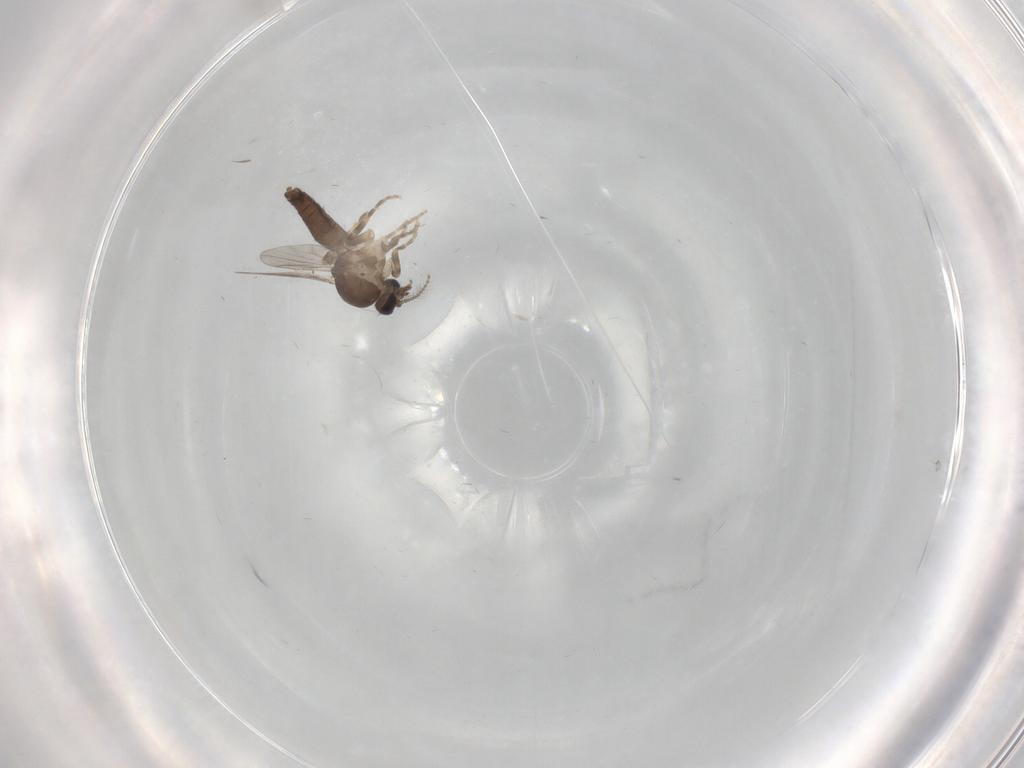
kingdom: Animalia
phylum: Arthropoda
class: Insecta
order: Diptera
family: Ceratopogonidae
